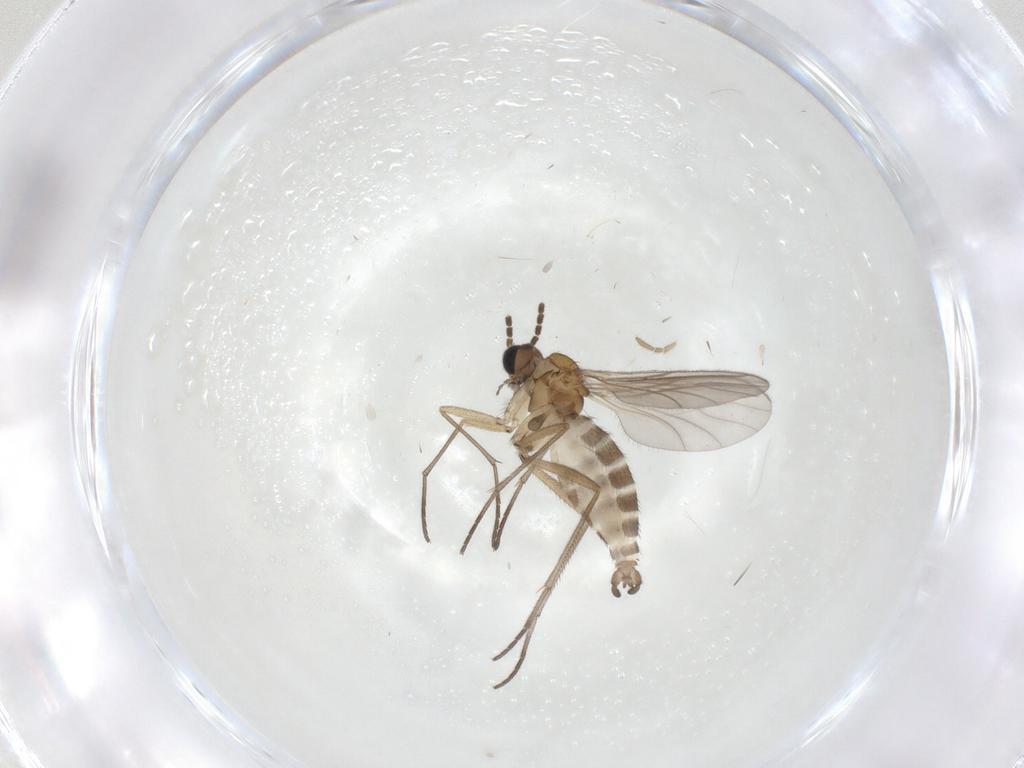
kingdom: Animalia
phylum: Arthropoda
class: Insecta
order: Diptera
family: Sciaridae
